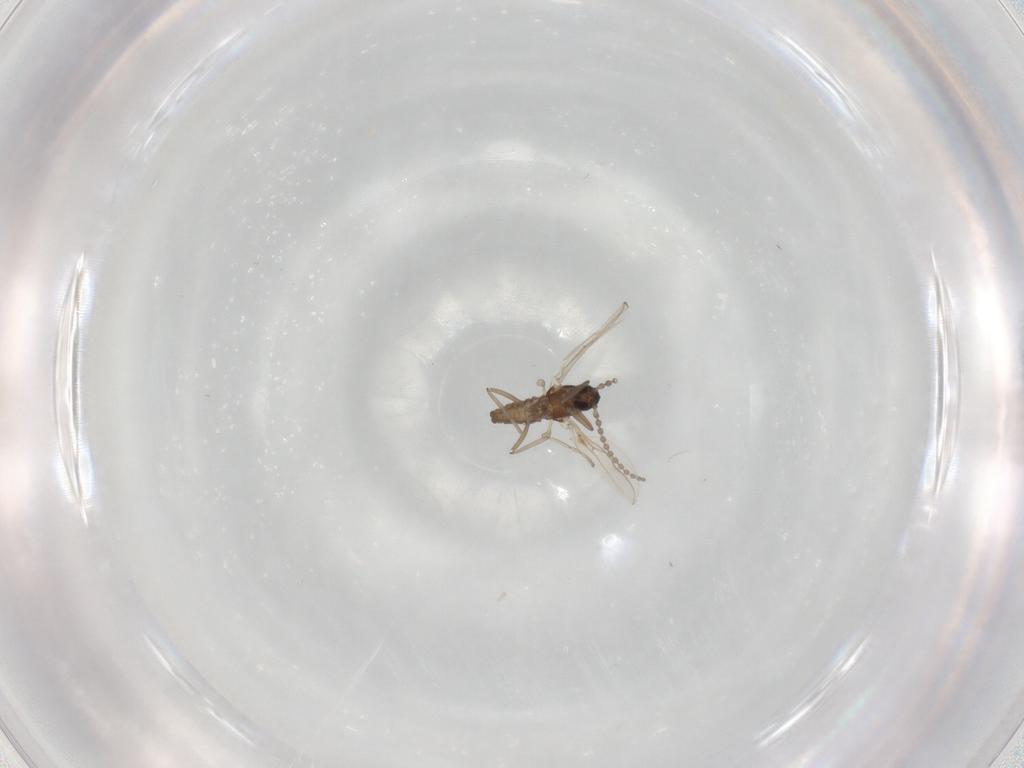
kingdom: Animalia
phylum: Arthropoda
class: Insecta
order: Diptera
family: Cecidomyiidae
